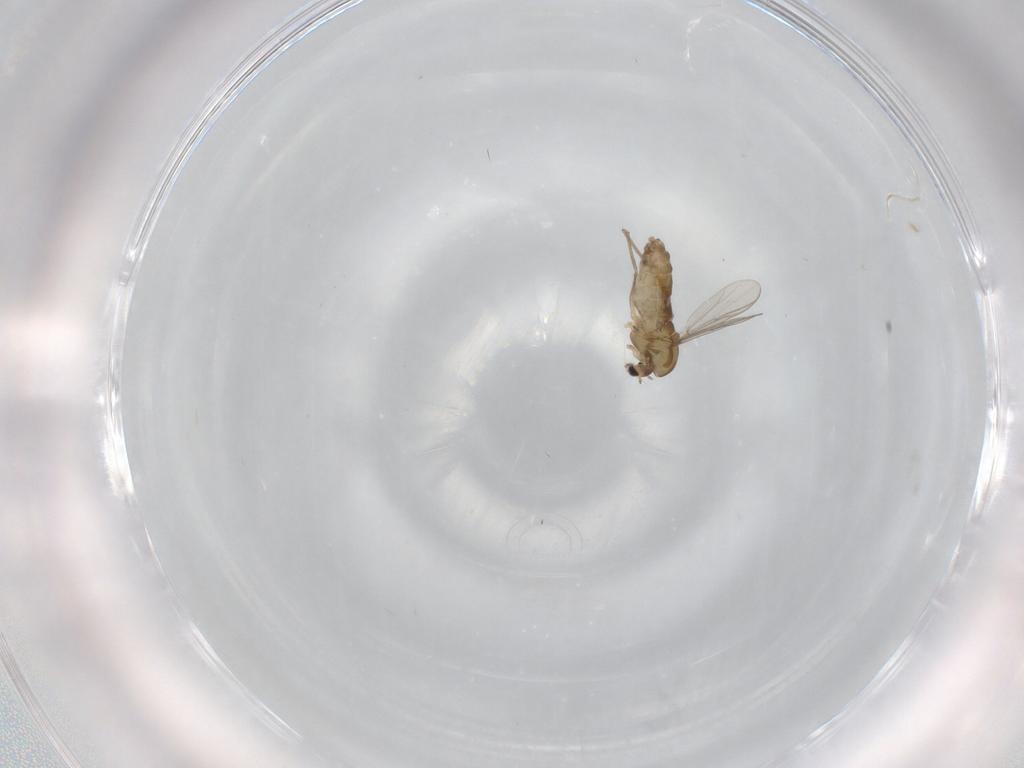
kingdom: Animalia
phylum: Arthropoda
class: Insecta
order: Diptera
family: Chironomidae
